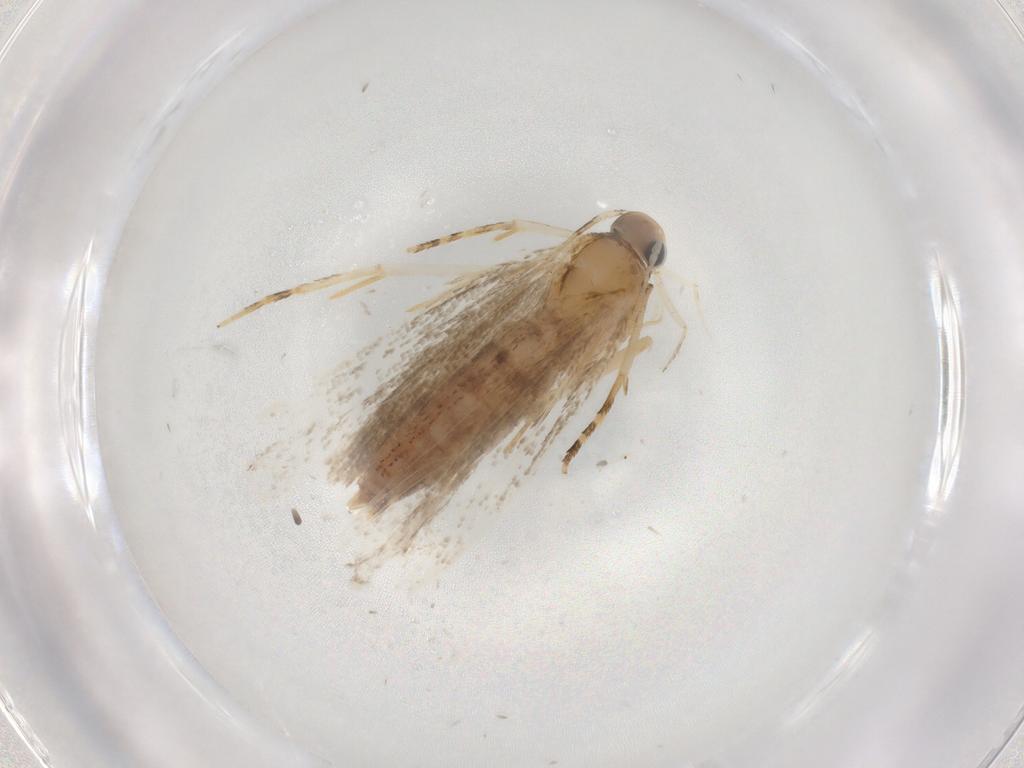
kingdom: Animalia
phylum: Arthropoda
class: Insecta
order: Lepidoptera
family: Gelechiidae
